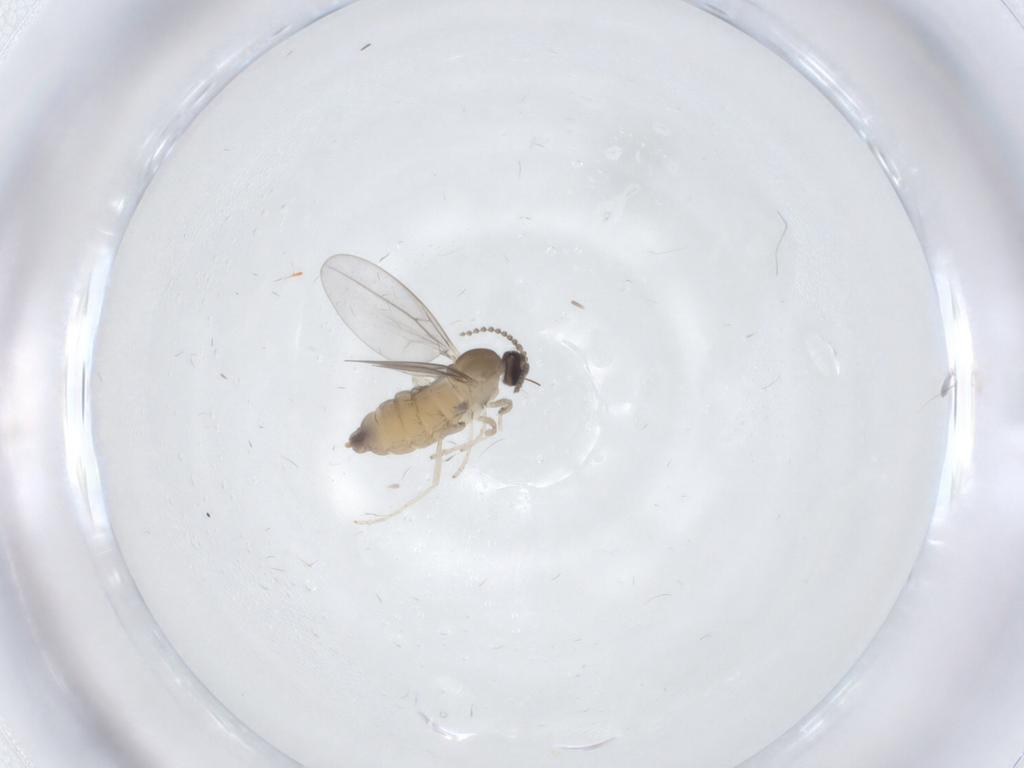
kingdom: Animalia
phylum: Arthropoda
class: Insecta
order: Diptera
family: Cecidomyiidae
